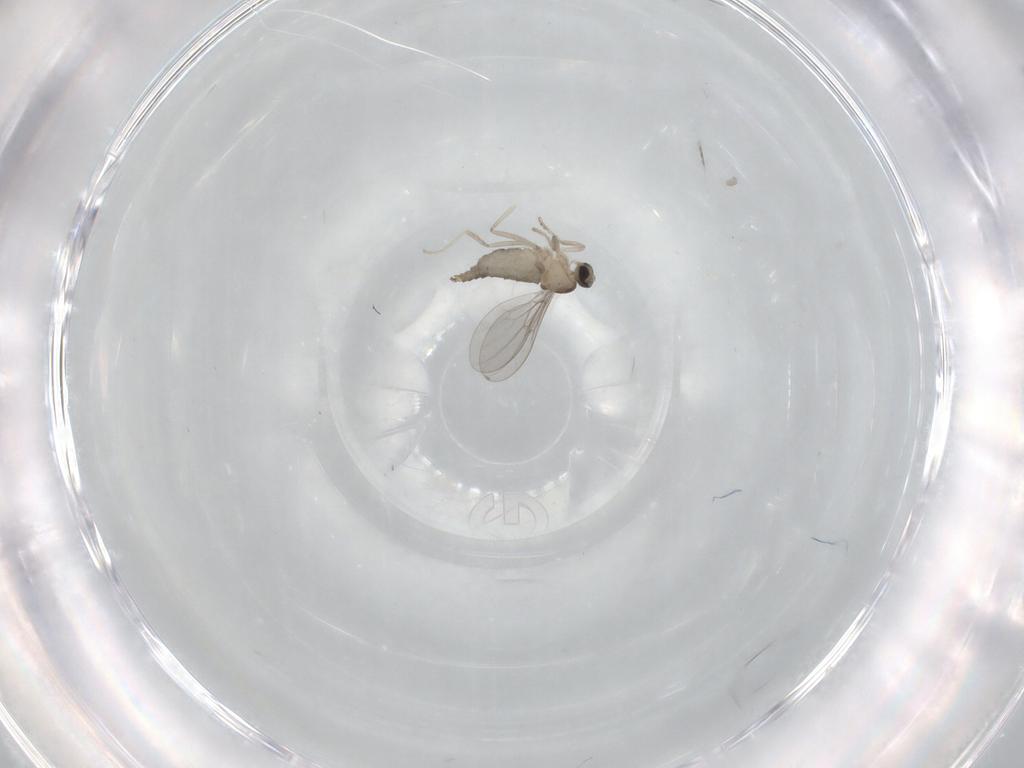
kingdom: Animalia
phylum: Arthropoda
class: Insecta
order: Diptera
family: Cecidomyiidae
